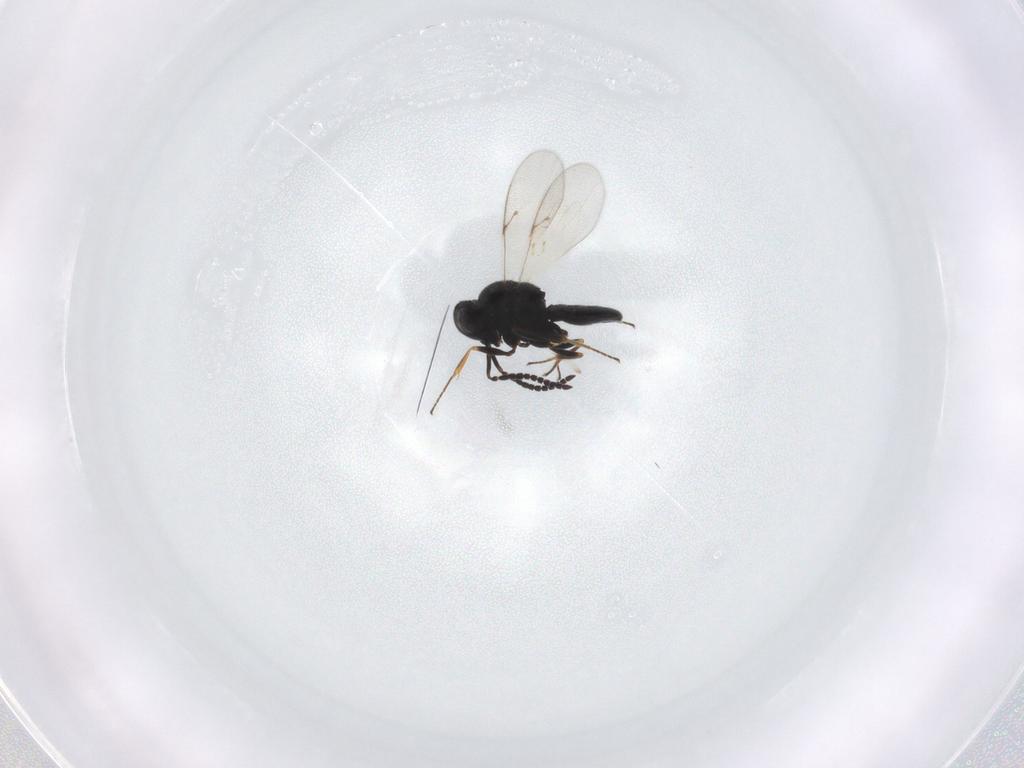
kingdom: Animalia
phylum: Arthropoda
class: Insecta
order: Hymenoptera
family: Scelionidae
